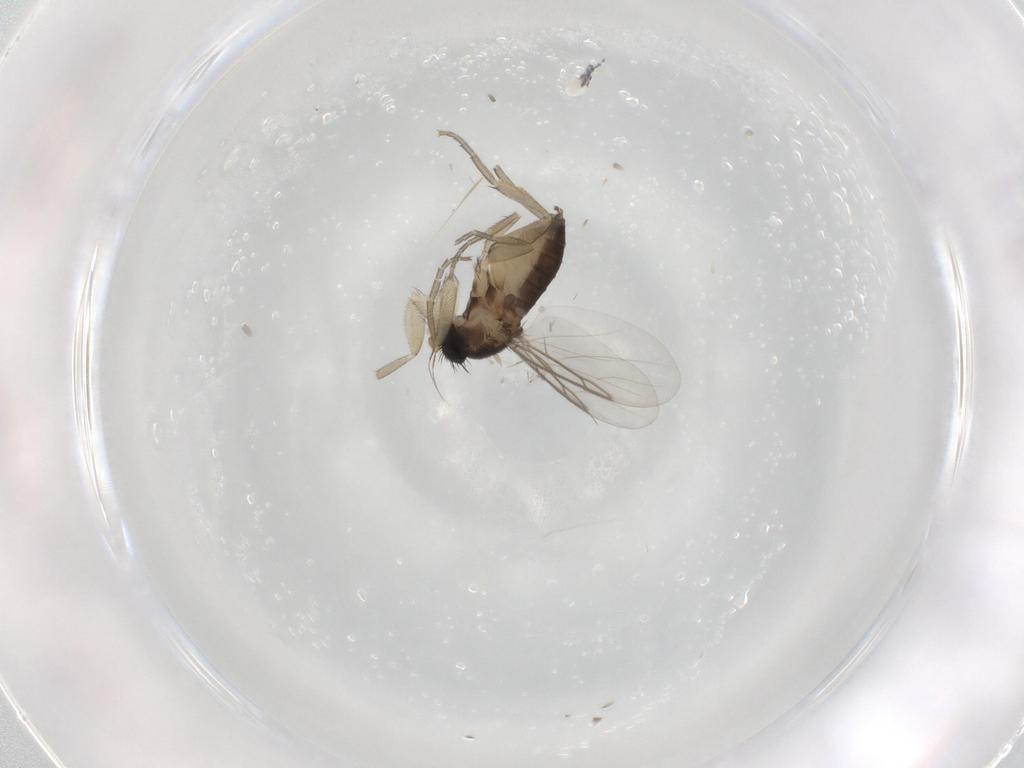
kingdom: Animalia
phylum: Arthropoda
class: Insecta
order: Diptera
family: Phoridae
